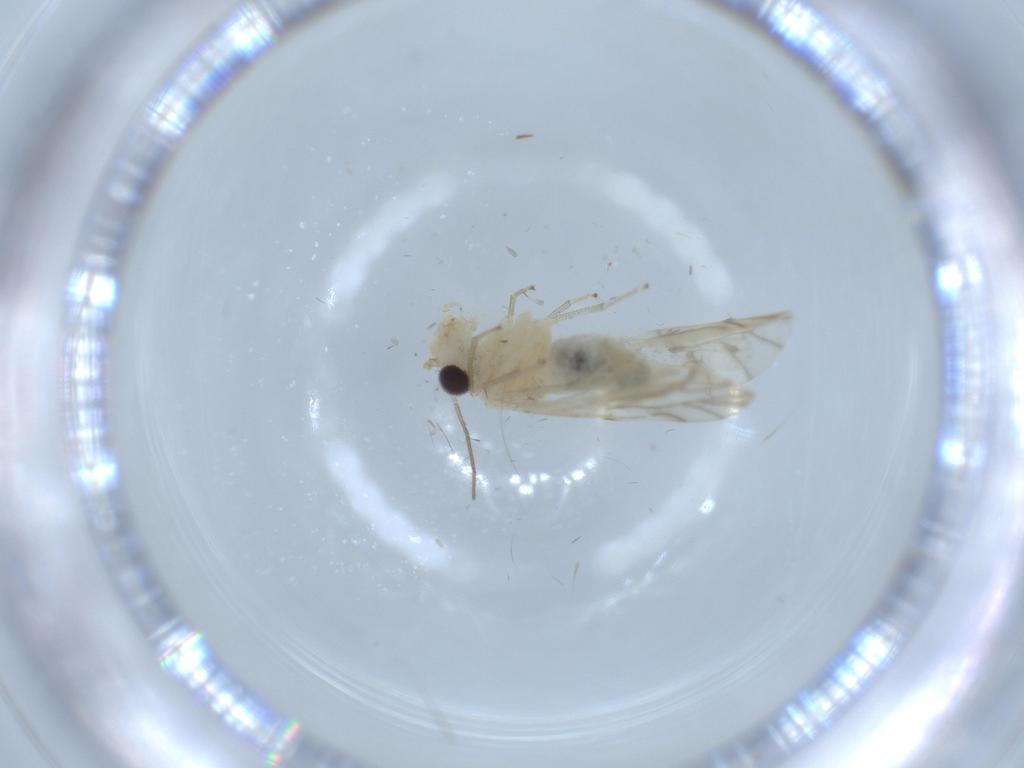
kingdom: Animalia
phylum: Arthropoda
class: Insecta
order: Psocodea
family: Caeciliusidae
